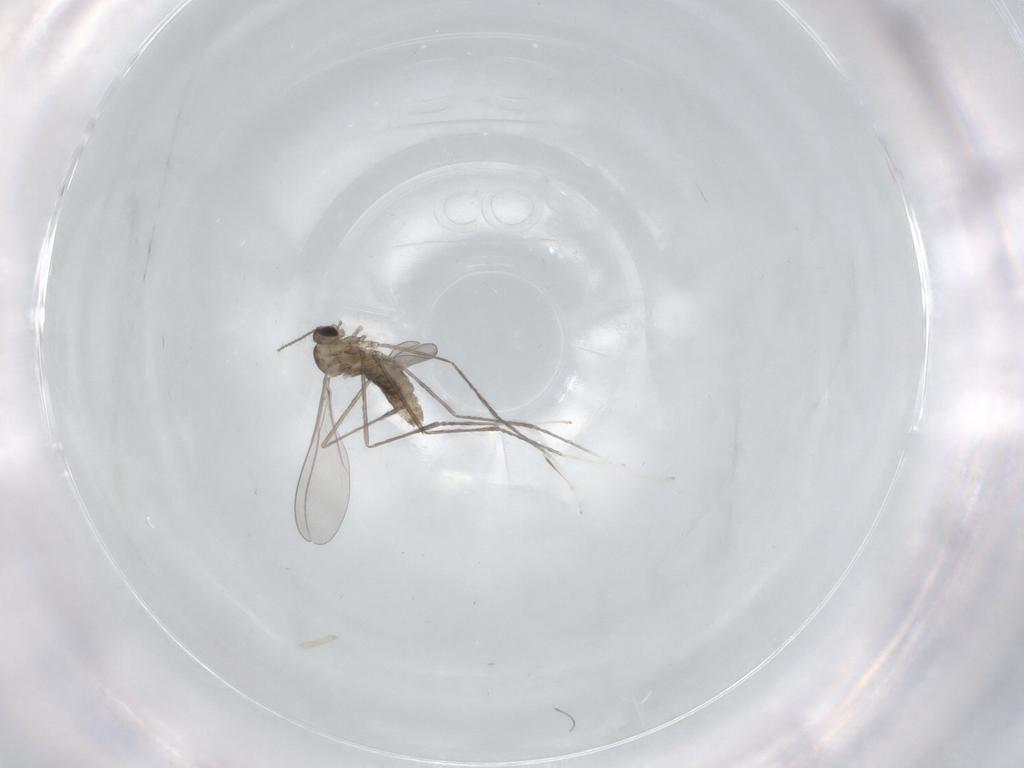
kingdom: Animalia
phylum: Arthropoda
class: Insecta
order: Diptera
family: Cecidomyiidae
